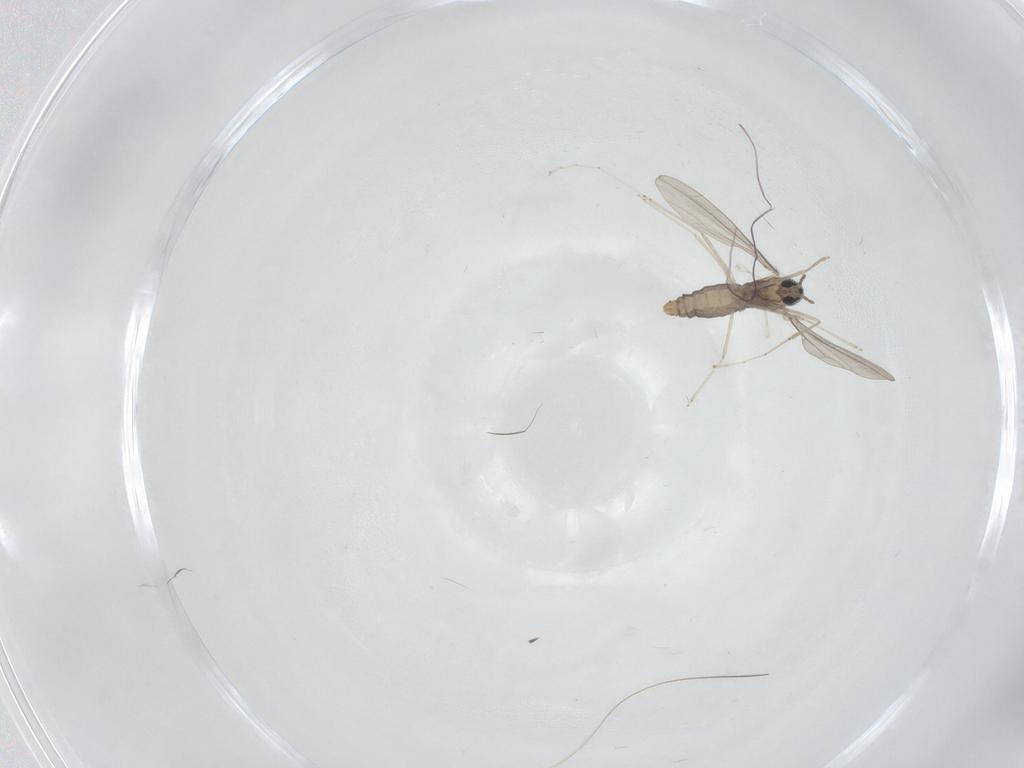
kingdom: Animalia
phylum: Arthropoda
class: Insecta
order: Diptera
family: Cecidomyiidae
